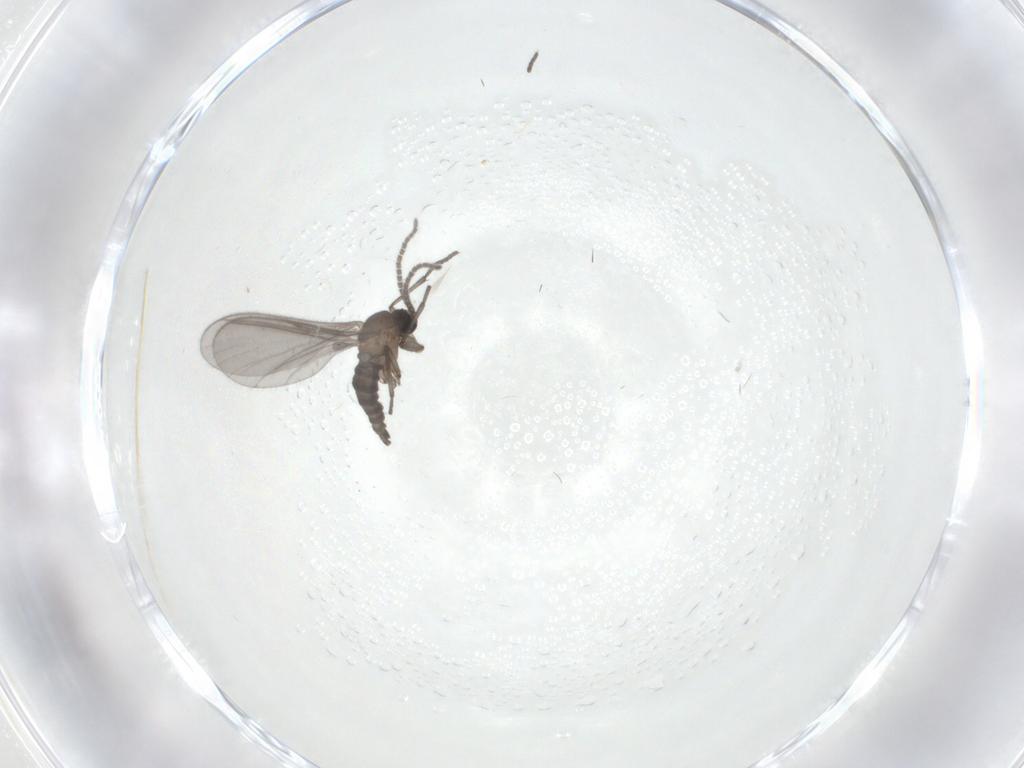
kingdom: Animalia
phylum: Arthropoda
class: Insecta
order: Diptera
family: Sciaridae
